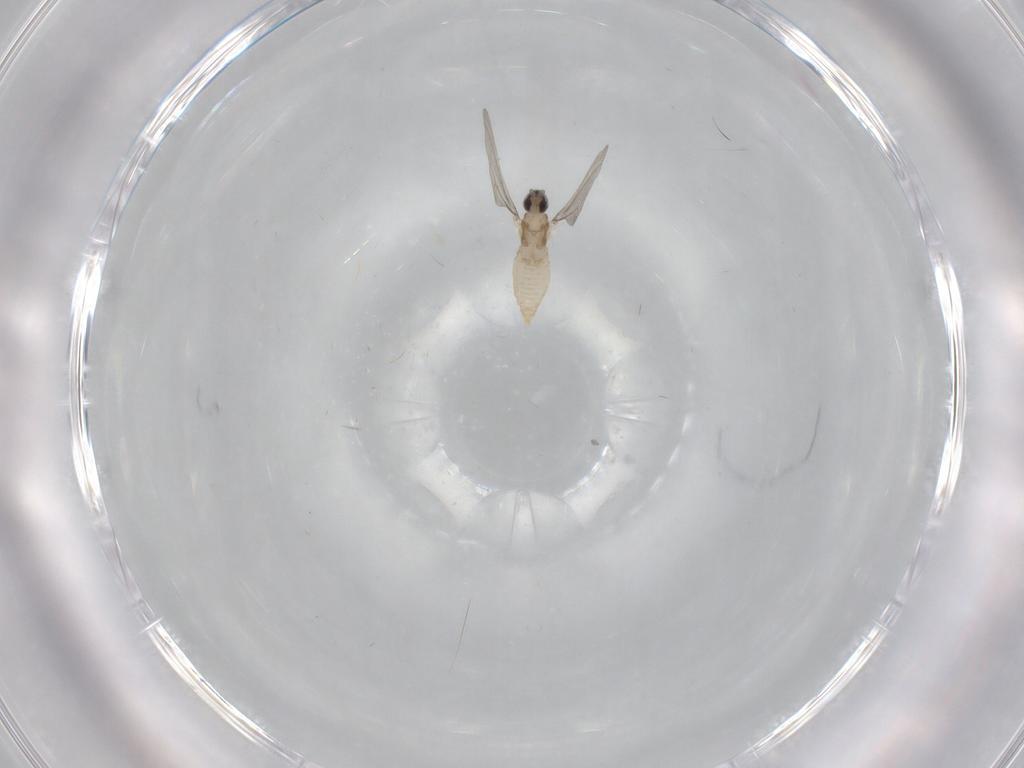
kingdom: Animalia
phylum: Arthropoda
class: Insecta
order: Diptera
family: Cecidomyiidae
